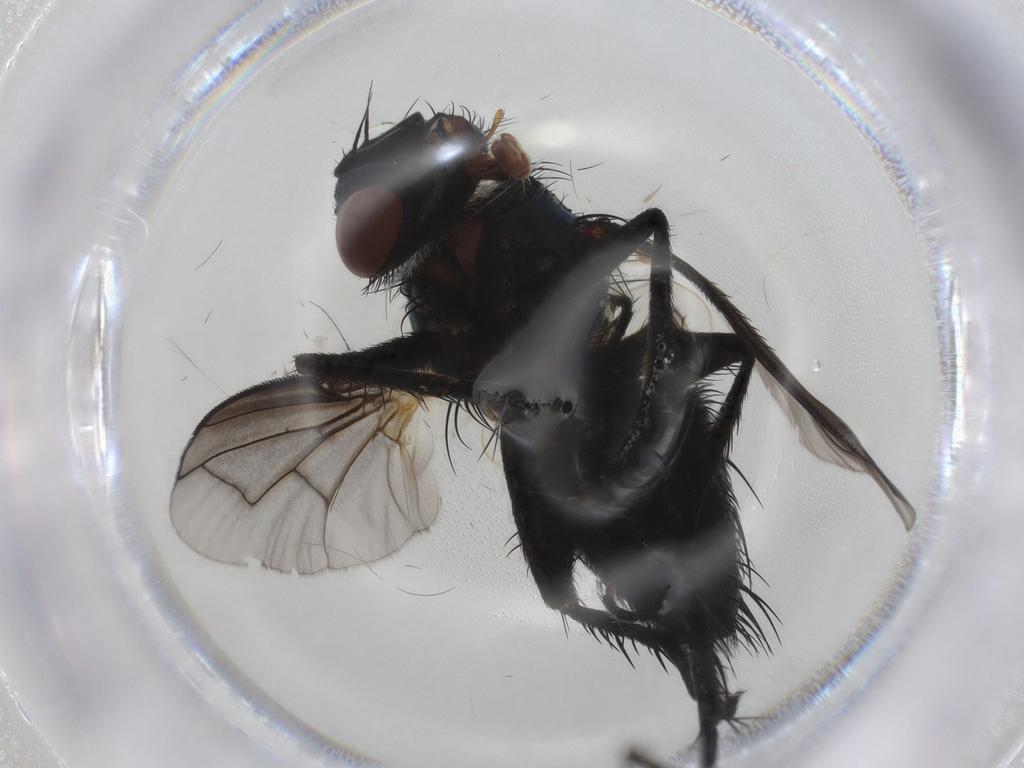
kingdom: Animalia
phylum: Arthropoda
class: Insecta
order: Diptera
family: Tachinidae
